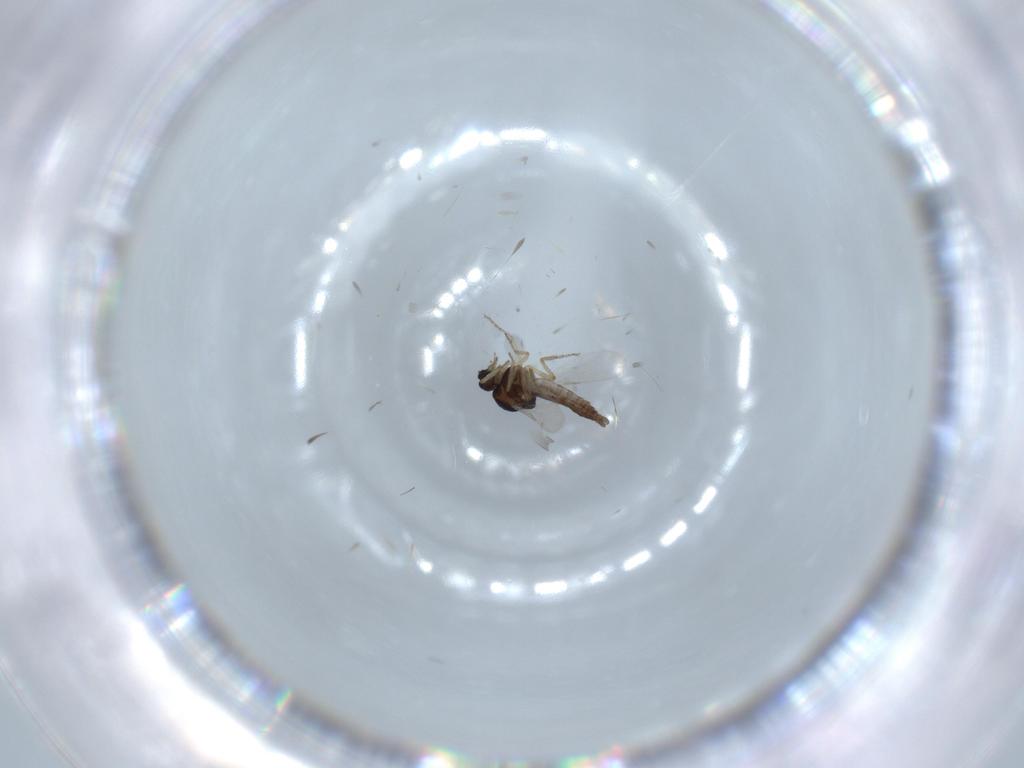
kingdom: Animalia
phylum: Arthropoda
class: Insecta
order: Diptera
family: Ceratopogonidae
